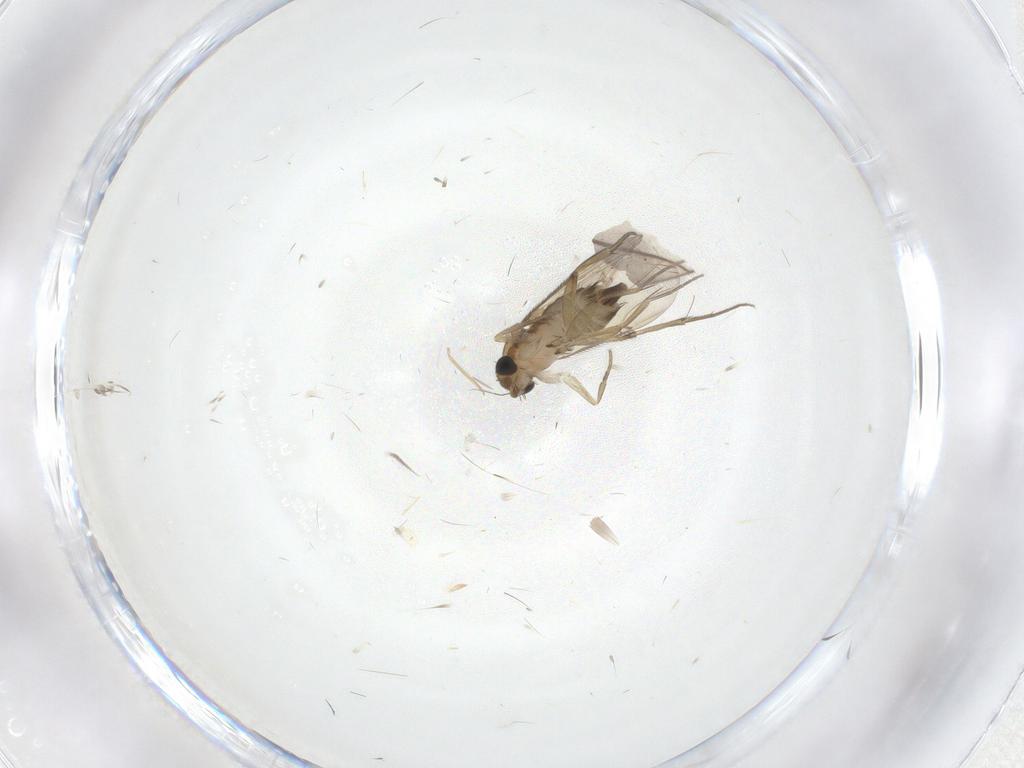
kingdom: Animalia
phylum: Arthropoda
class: Insecta
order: Diptera
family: Phoridae
